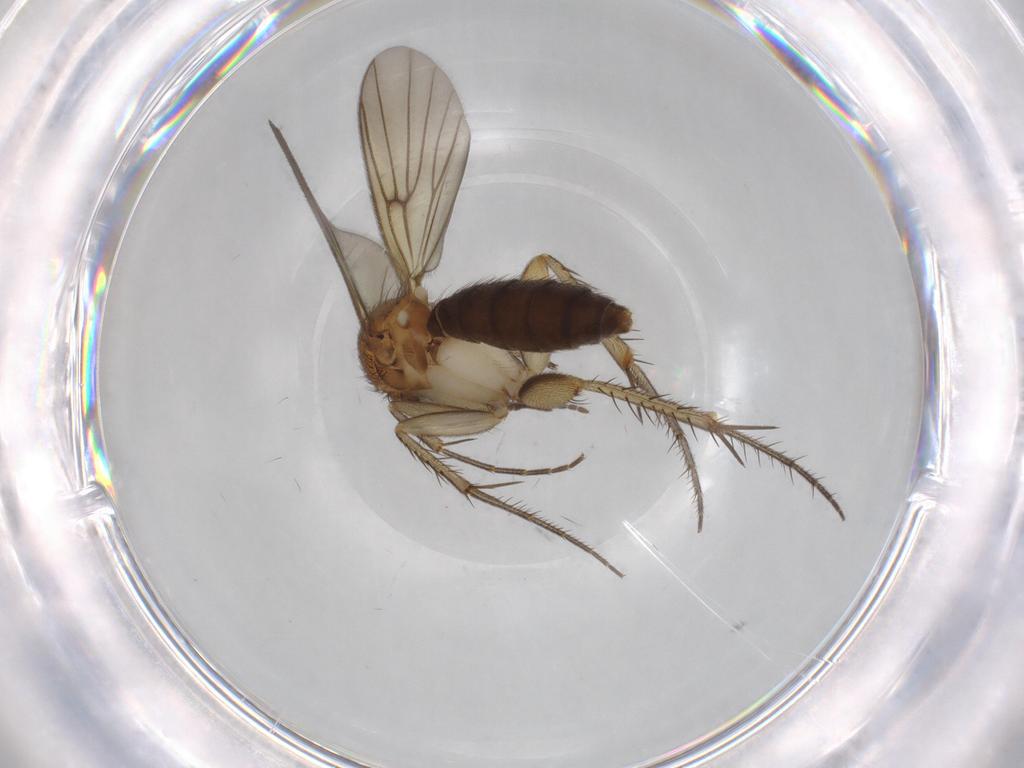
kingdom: Animalia
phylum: Arthropoda
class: Insecta
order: Diptera
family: Mycetophilidae
